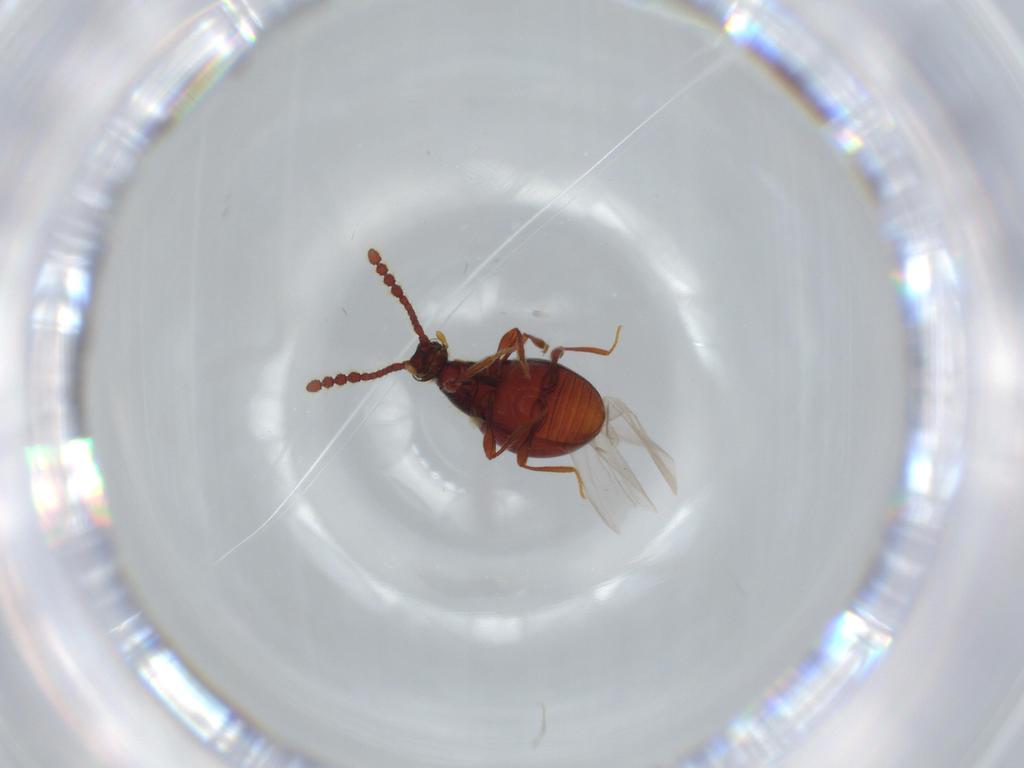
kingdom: Animalia
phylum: Arthropoda
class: Insecta
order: Coleoptera
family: Staphylinidae
